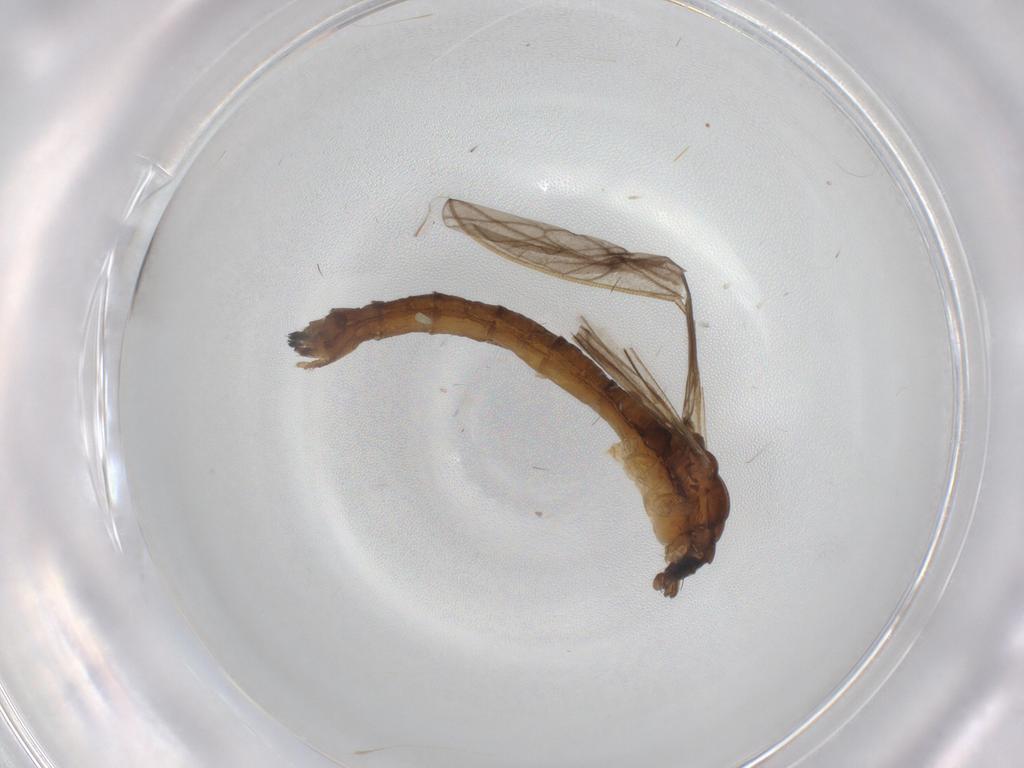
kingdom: Animalia
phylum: Arthropoda
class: Insecta
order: Diptera
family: Limoniidae
